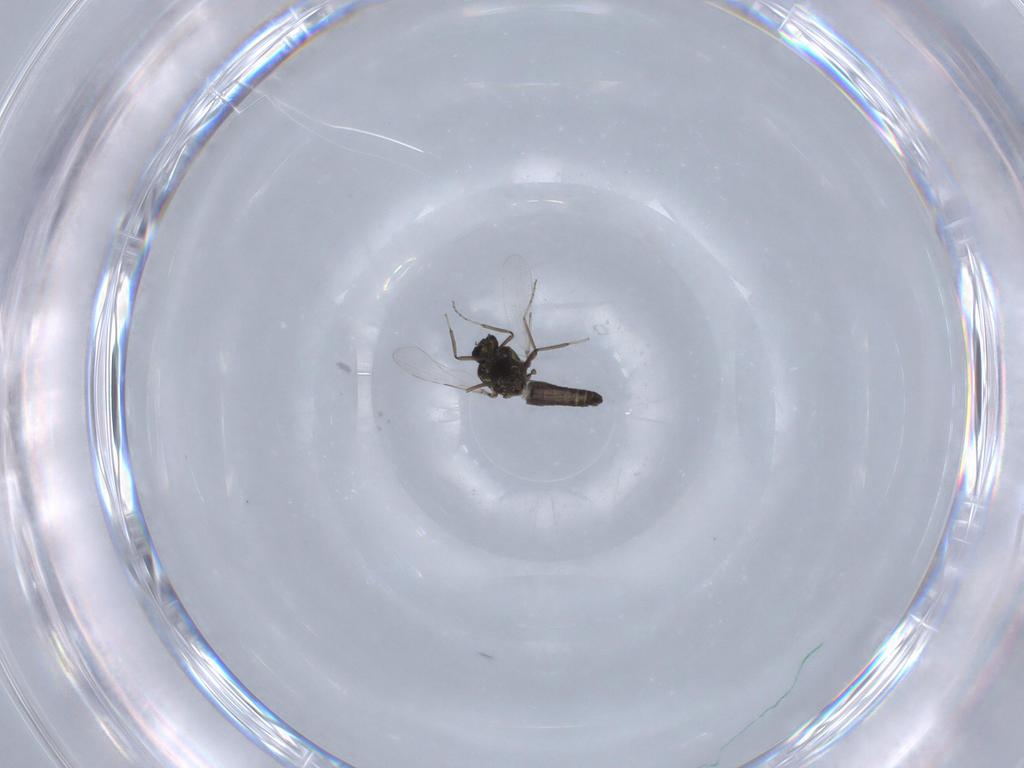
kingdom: Animalia
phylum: Arthropoda
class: Insecta
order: Diptera
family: Ceratopogonidae
